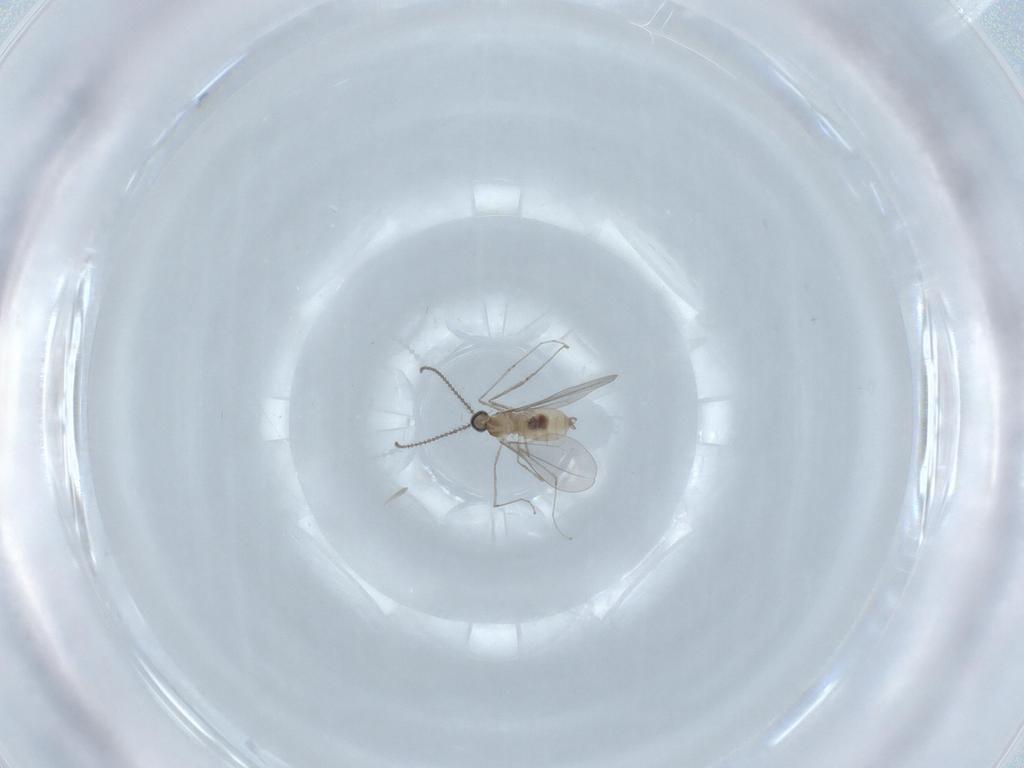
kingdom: Animalia
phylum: Arthropoda
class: Insecta
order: Diptera
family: Cecidomyiidae
